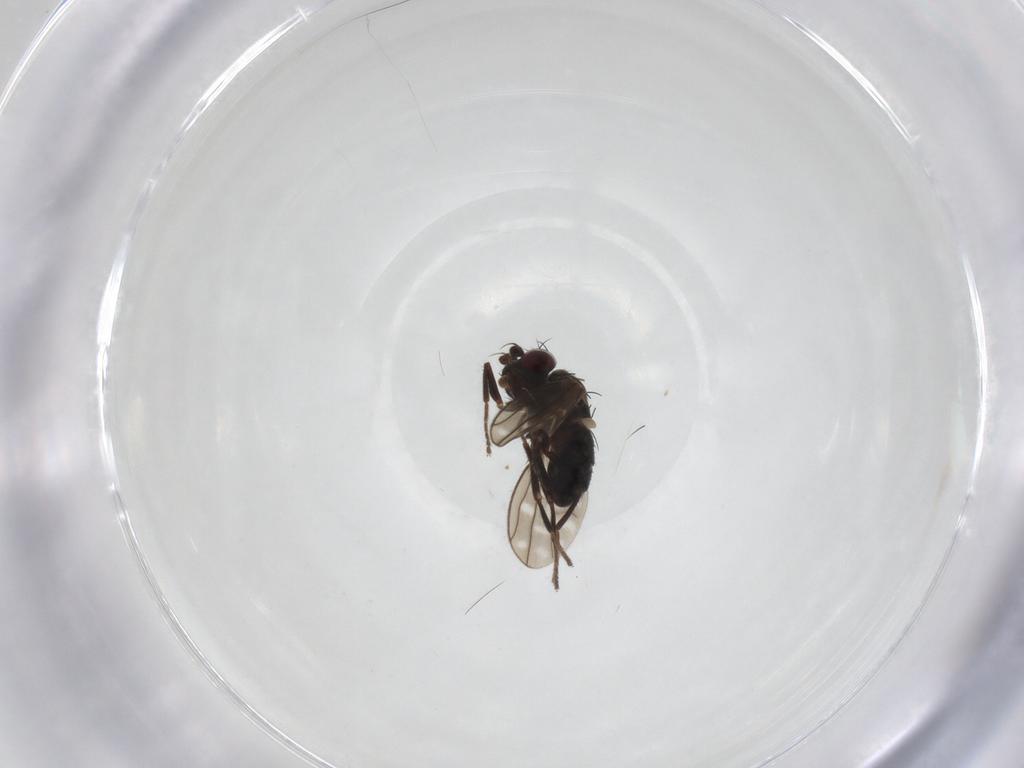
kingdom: Animalia
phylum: Arthropoda
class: Insecta
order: Diptera
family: Ephydridae
